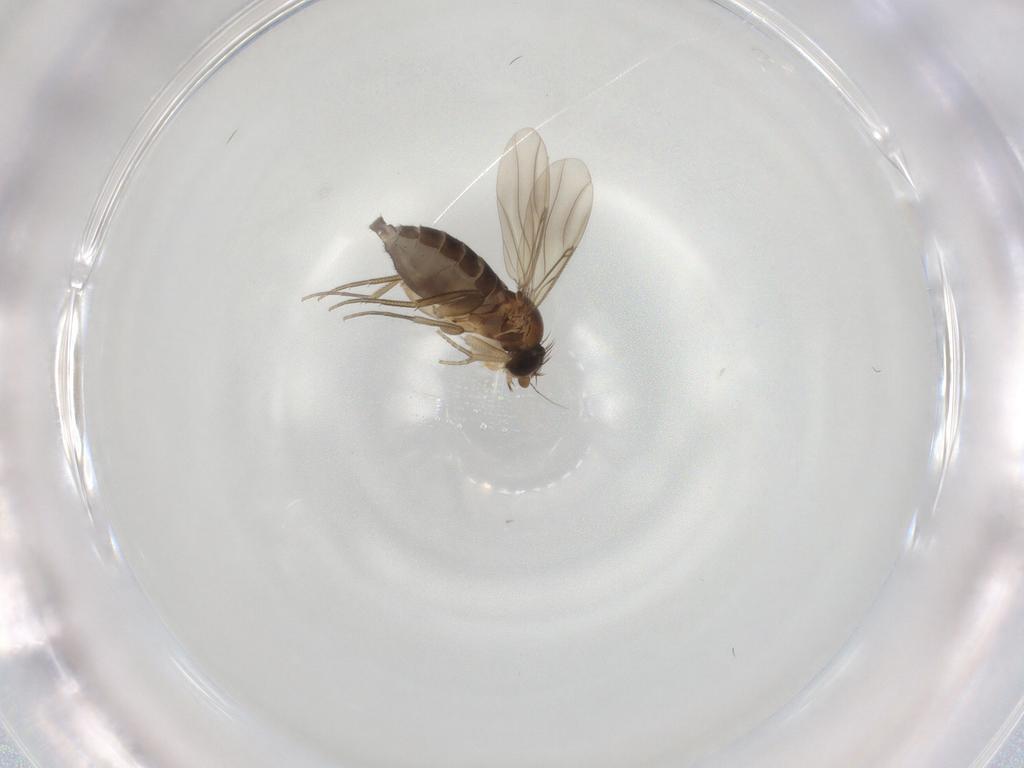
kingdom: Animalia
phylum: Arthropoda
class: Insecta
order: Diptera
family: Phoridae
